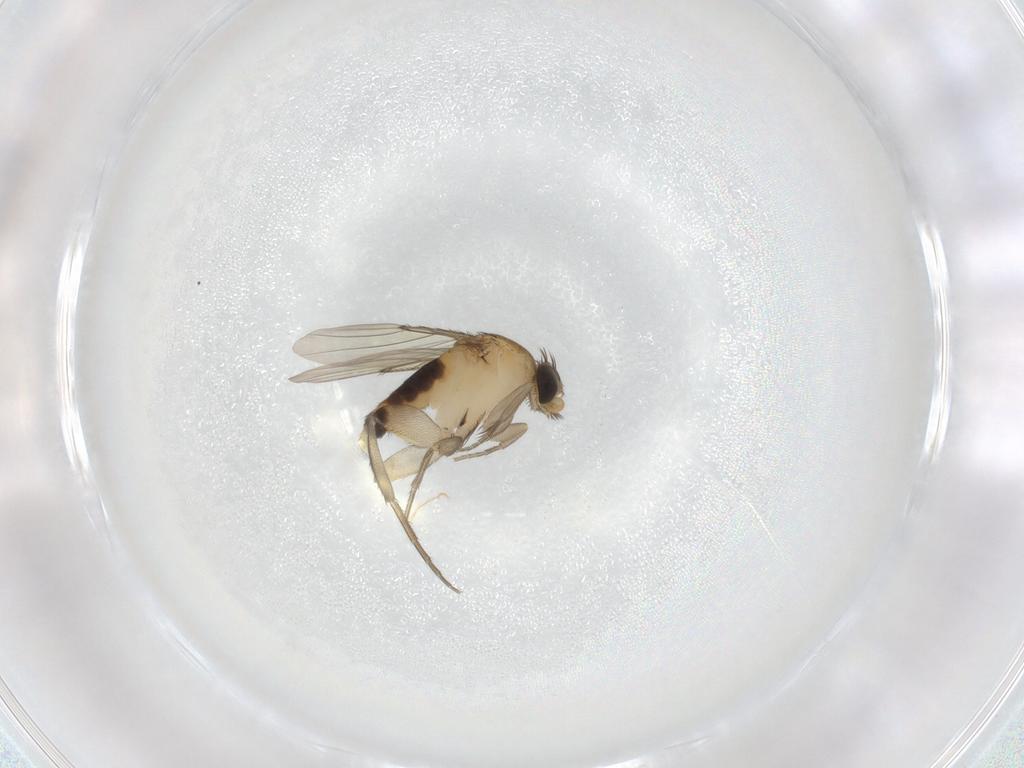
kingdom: Animalia
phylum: Arthropoda
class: Insecta
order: Diptera
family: Phoridae
